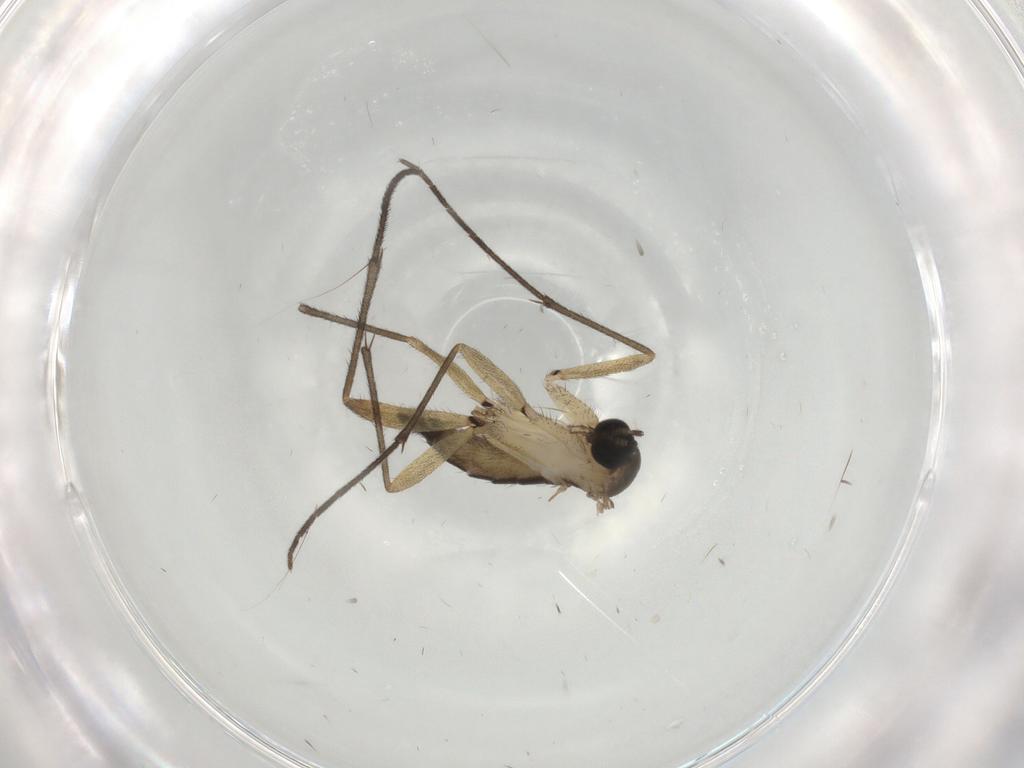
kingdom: Animalia
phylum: Arthropoda
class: Insecta
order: Diptera
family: Sciaridae
